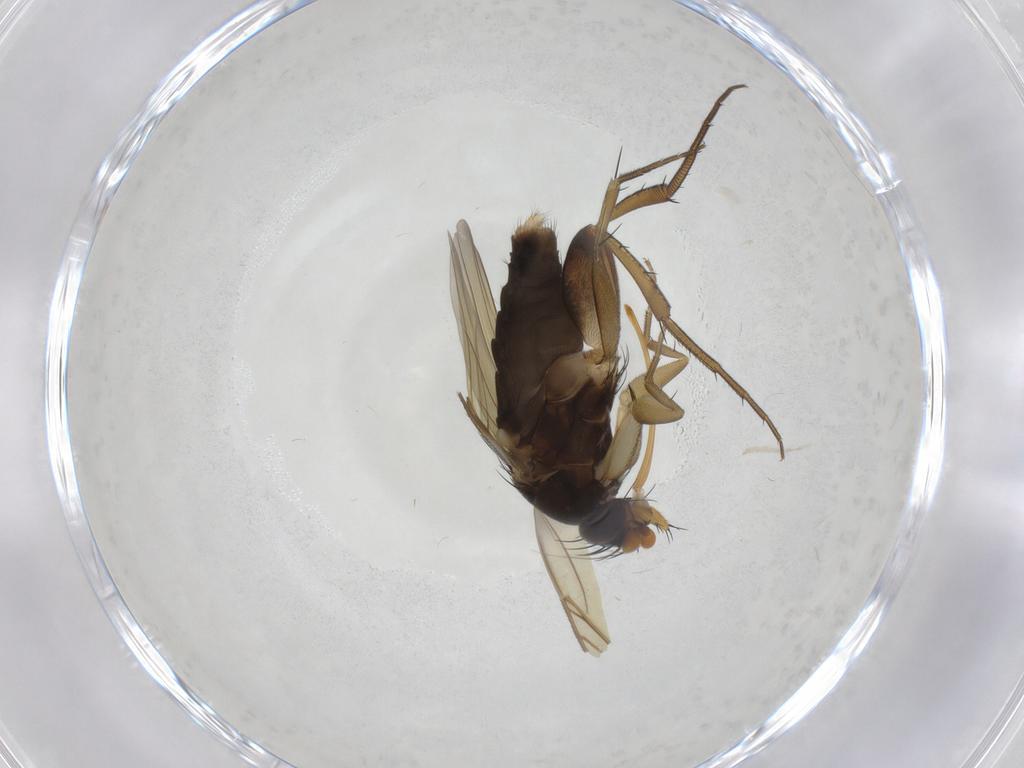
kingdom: Animalia
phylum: Arthropoda
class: Insecta
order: Diptera
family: Phoridae
